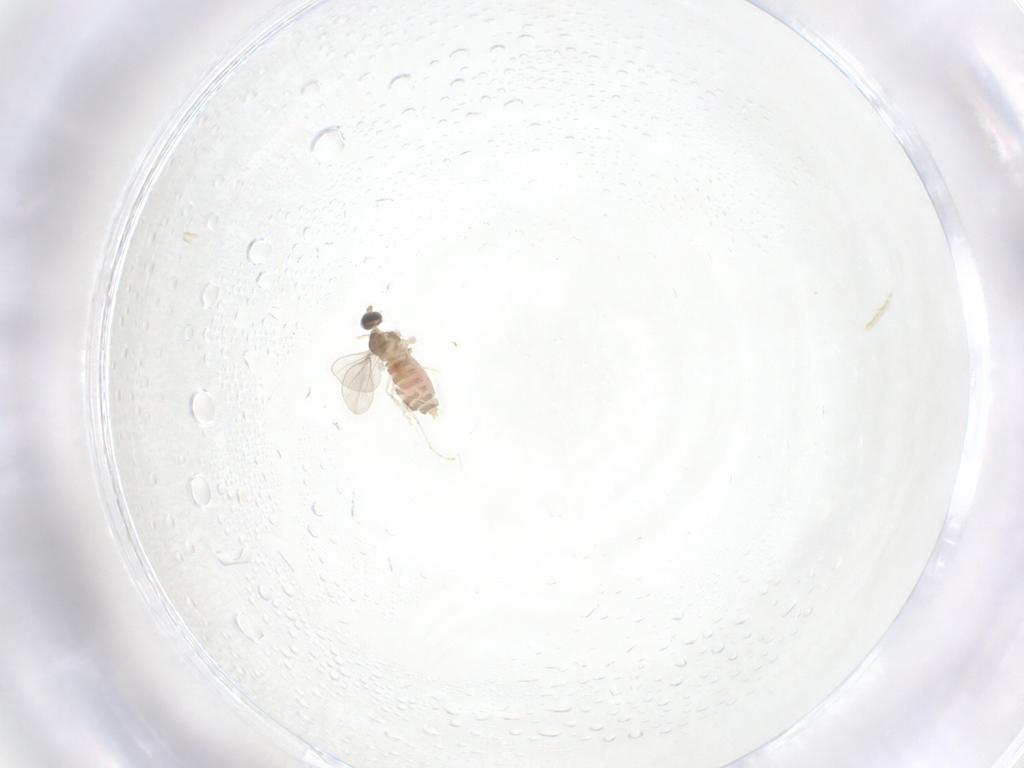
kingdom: Animalia
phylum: Arthropoda
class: Insecta
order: Diptera
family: Cecidomyiidae
